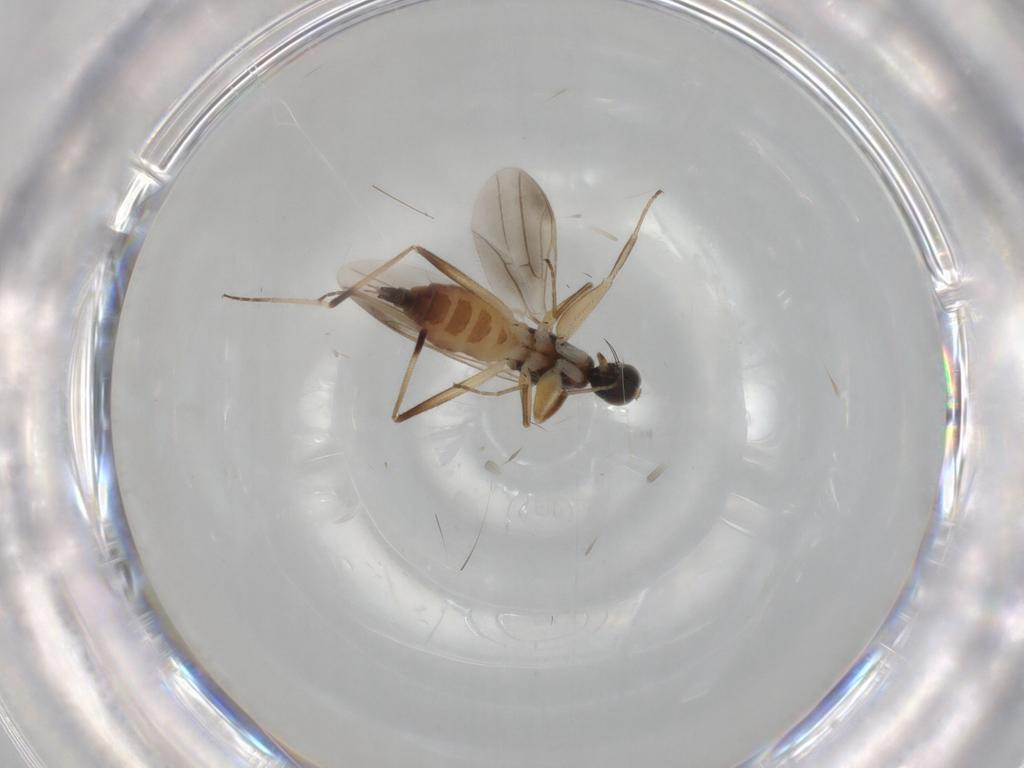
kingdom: Animalia
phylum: Arthropoda
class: Insecta
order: Diptera
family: Hybotidae
